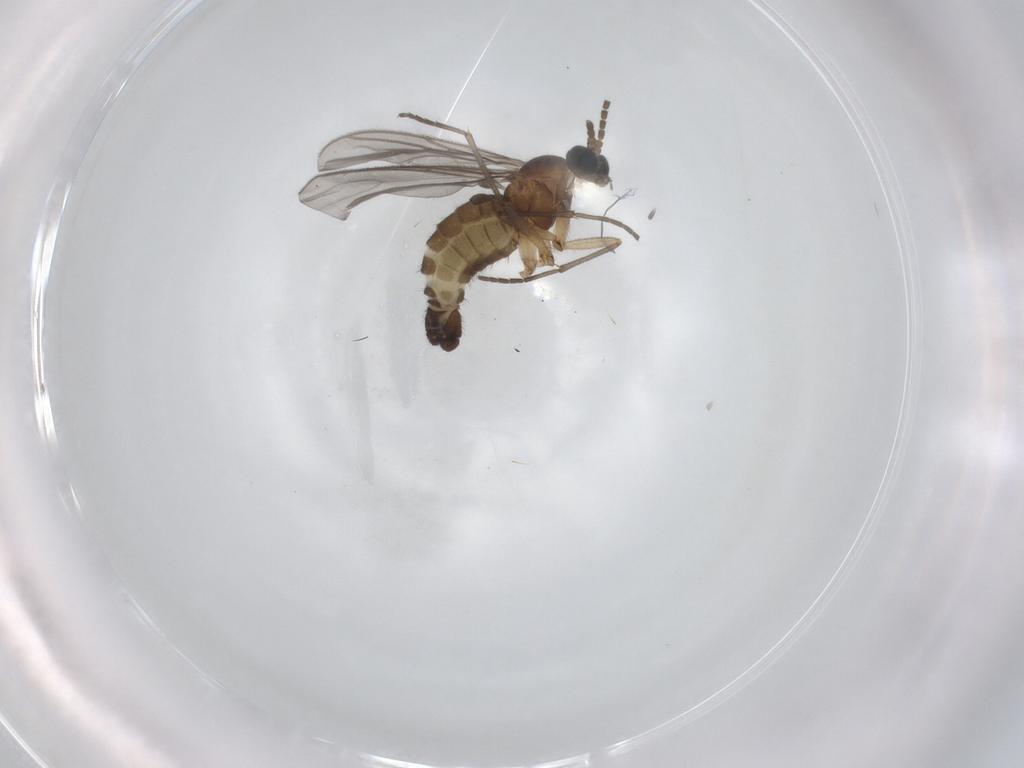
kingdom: Animalia
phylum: Arthropoda
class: Insecta
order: Diptera
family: Sciaridae
